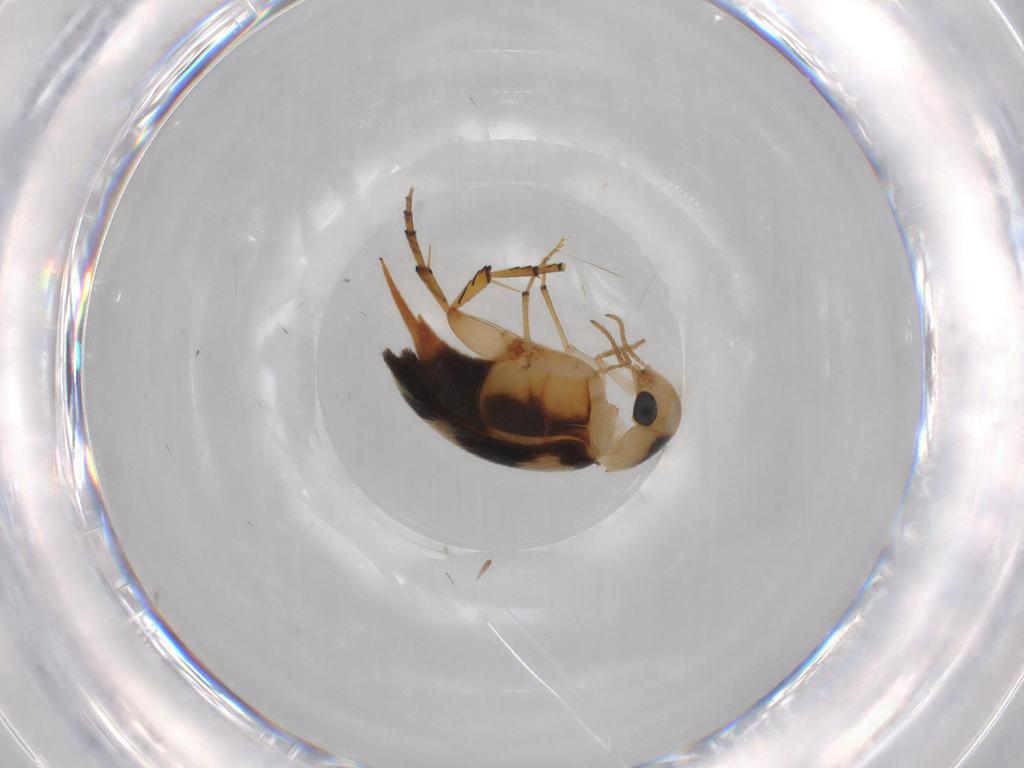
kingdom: Animalia
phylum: Arthropoda
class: Insecta
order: Coleoptera
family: Mordellidae
